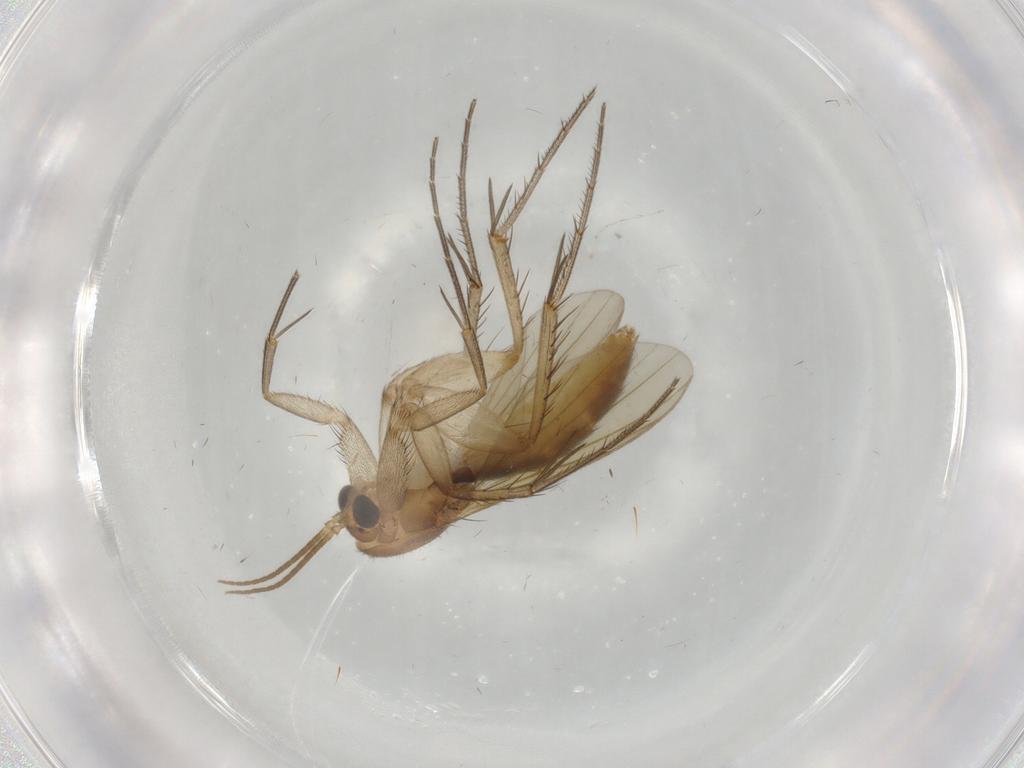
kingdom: Animalia
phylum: Arthropoda
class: Insecta
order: Diptera
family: Mycetophilidae
